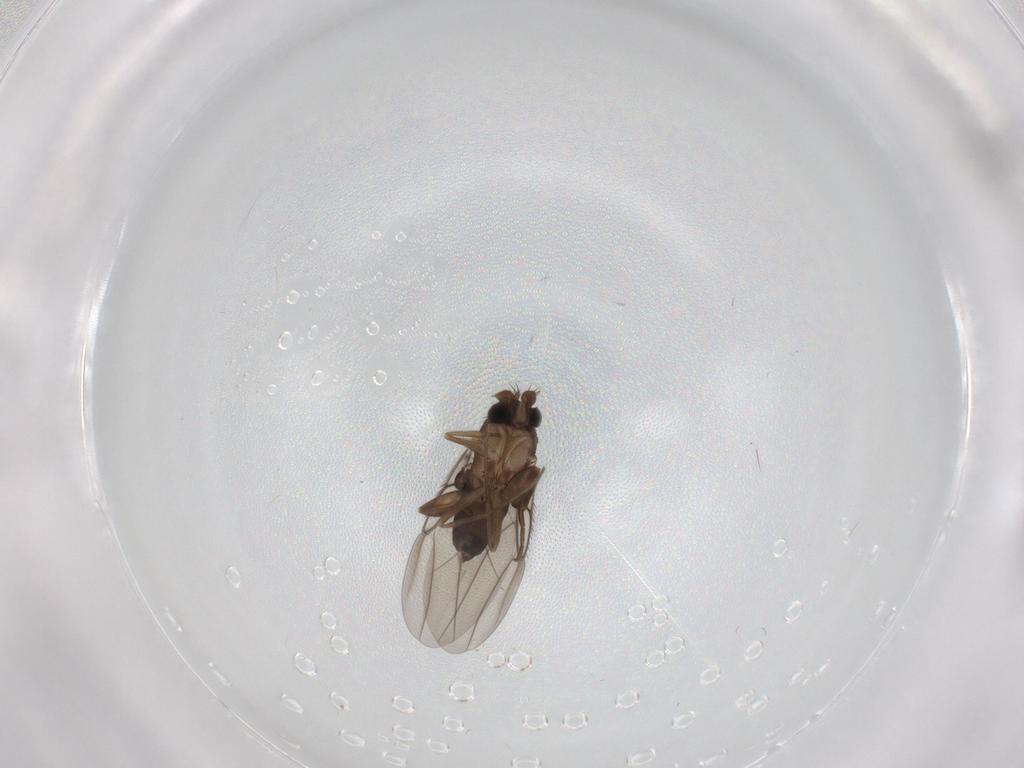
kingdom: Animalia
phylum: Arthropoda
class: Insecta
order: Diptera
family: Phoridae
